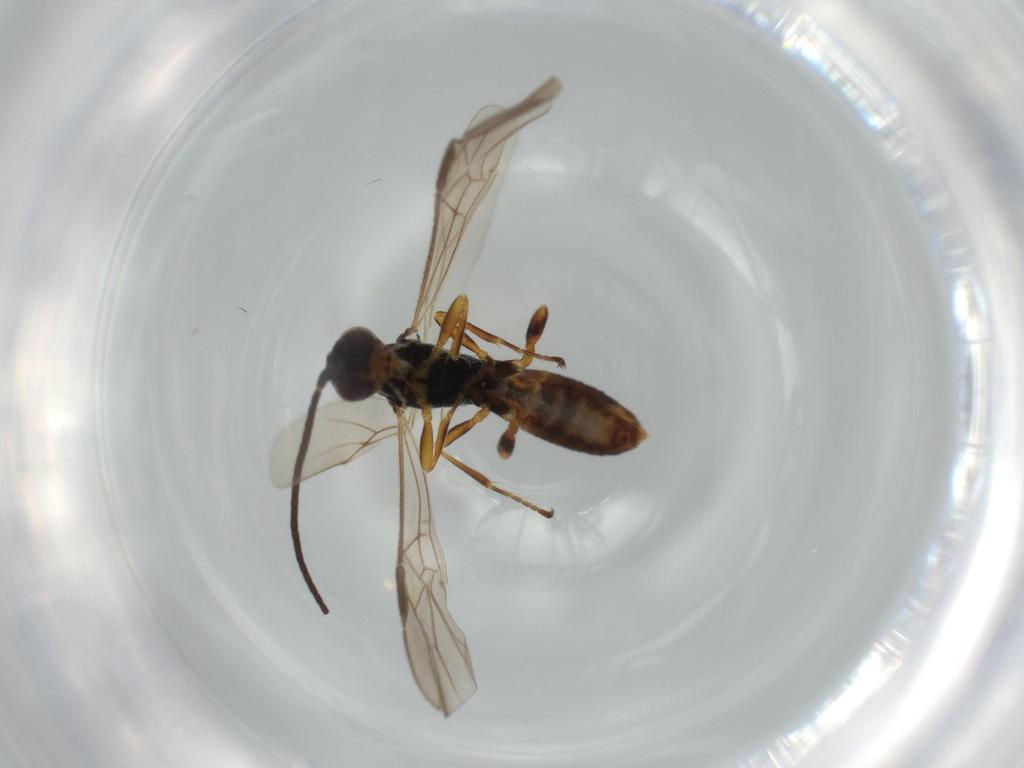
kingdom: Animalia
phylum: Arthropoda
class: Insecta
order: Hymenoptera
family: Braconidae
